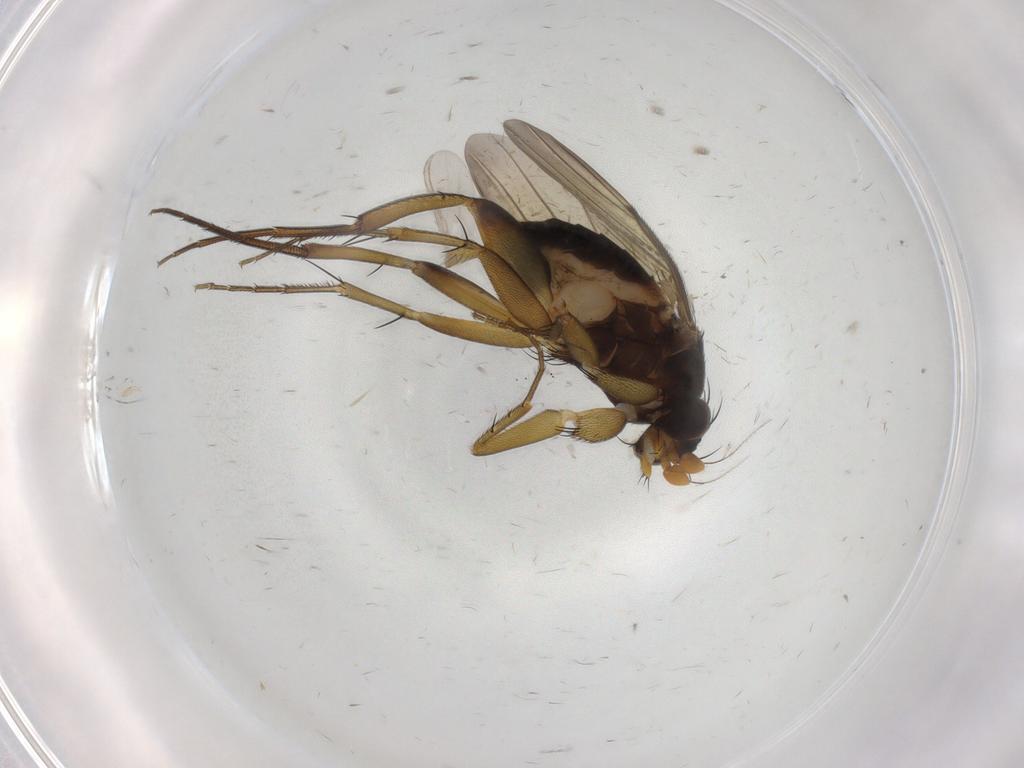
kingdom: Animalia
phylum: Arthropoda
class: Insecta
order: Diptera
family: Phoridae
